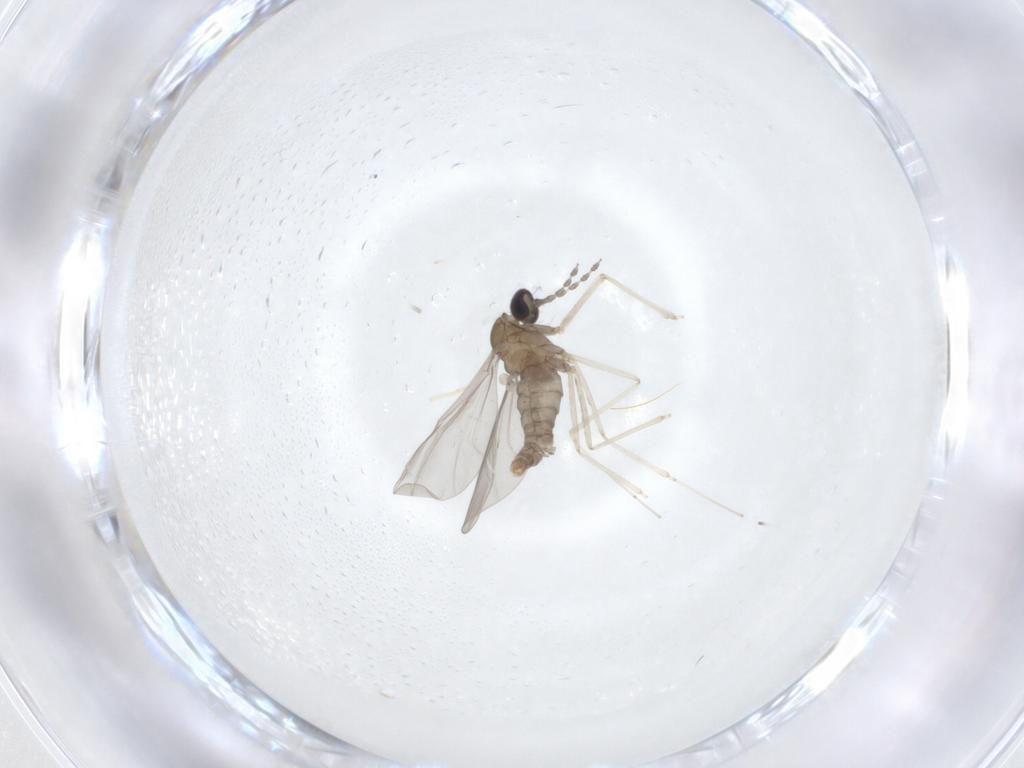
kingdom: Animalia
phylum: Arthropoda
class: Insecta
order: Diptera
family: Cecidomyiidae
